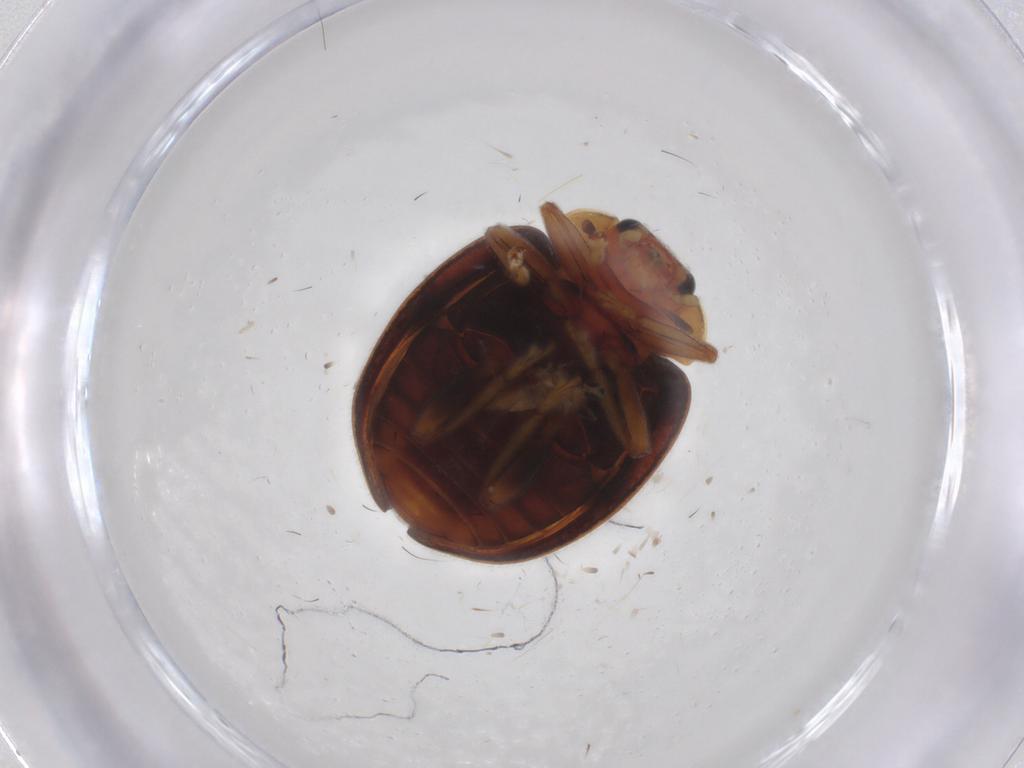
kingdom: Animalia
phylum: Arthropoda
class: Insecta
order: Coleoptera
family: Coccinellidae
